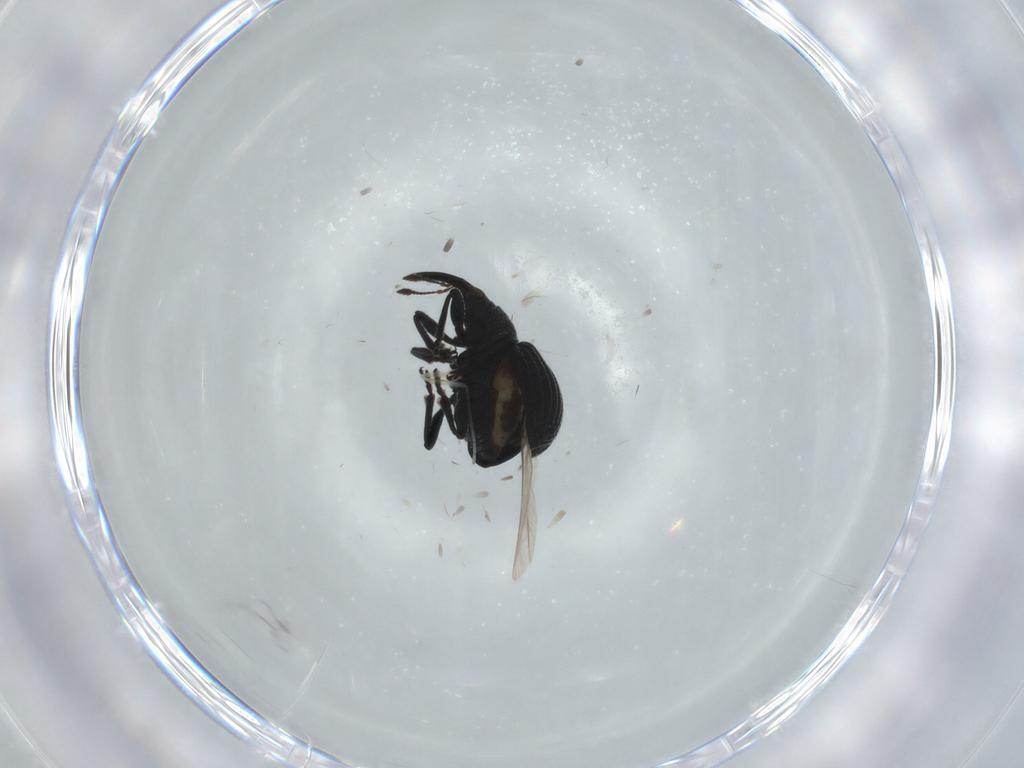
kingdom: Animalia
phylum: Arthropoda
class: Insecta
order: Coleoptera
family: Brentidae
